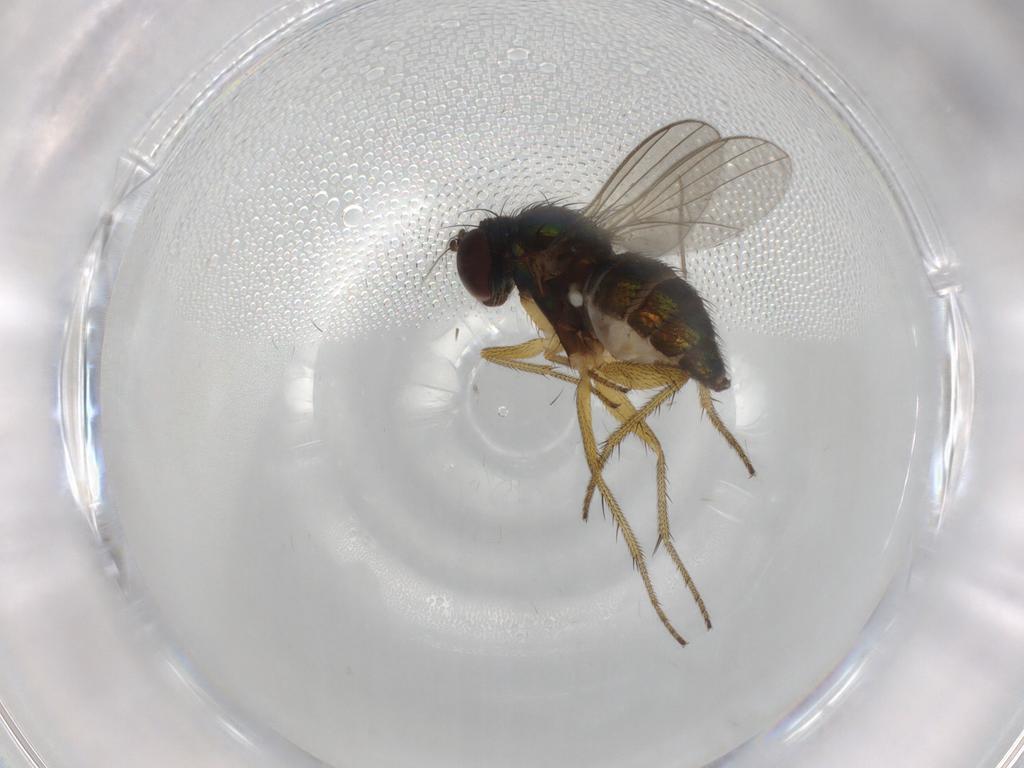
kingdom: Animalia
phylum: Arthropoda
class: Insecta
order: Diptera
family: Dolichopodidae
